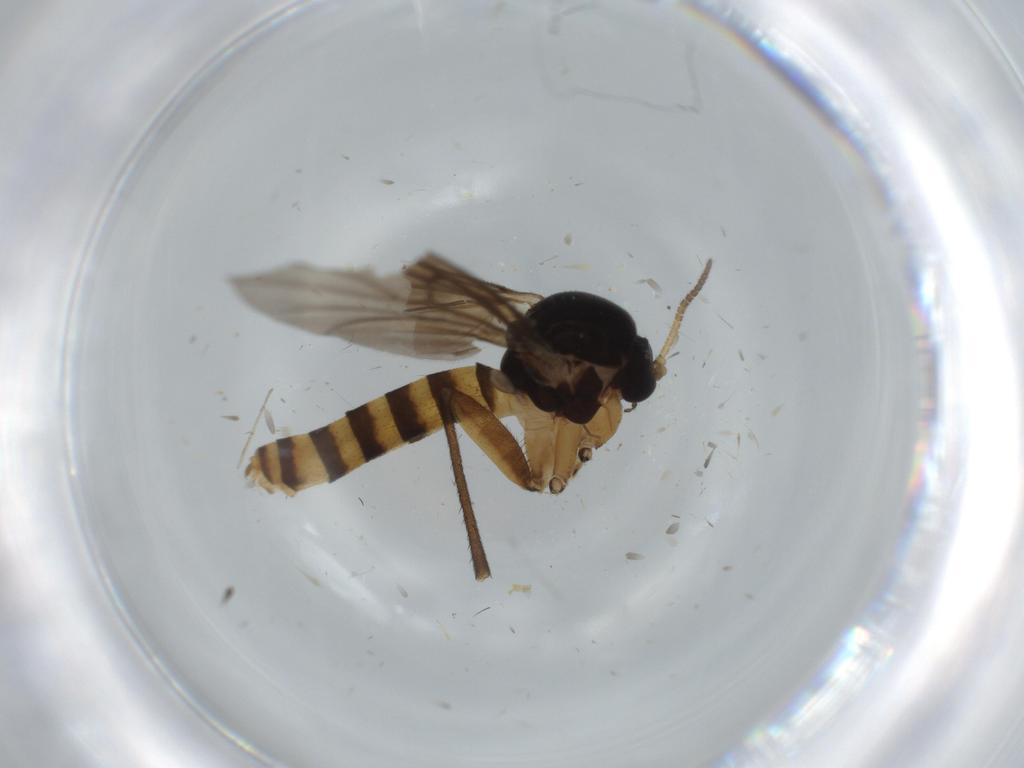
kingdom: Animalia
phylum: Arthropoda
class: Insecta
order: Diptera
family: Mycetophilidae
